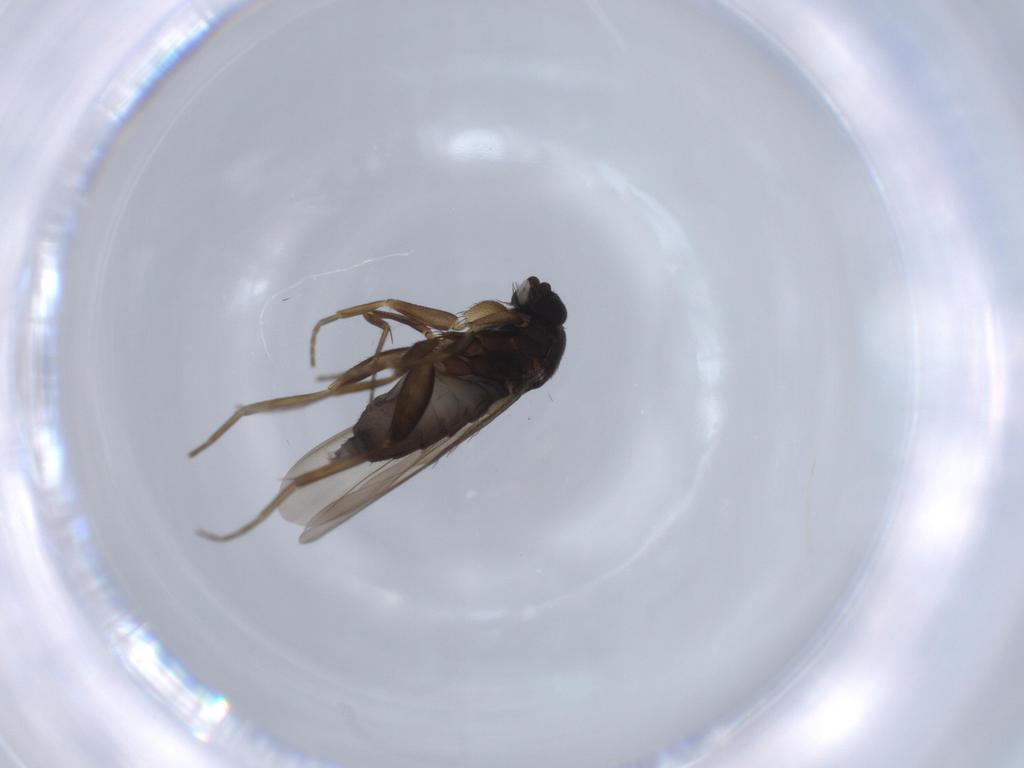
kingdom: Animalia
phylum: Arthropoda
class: Insecta
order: Diptera
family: Phoridae
